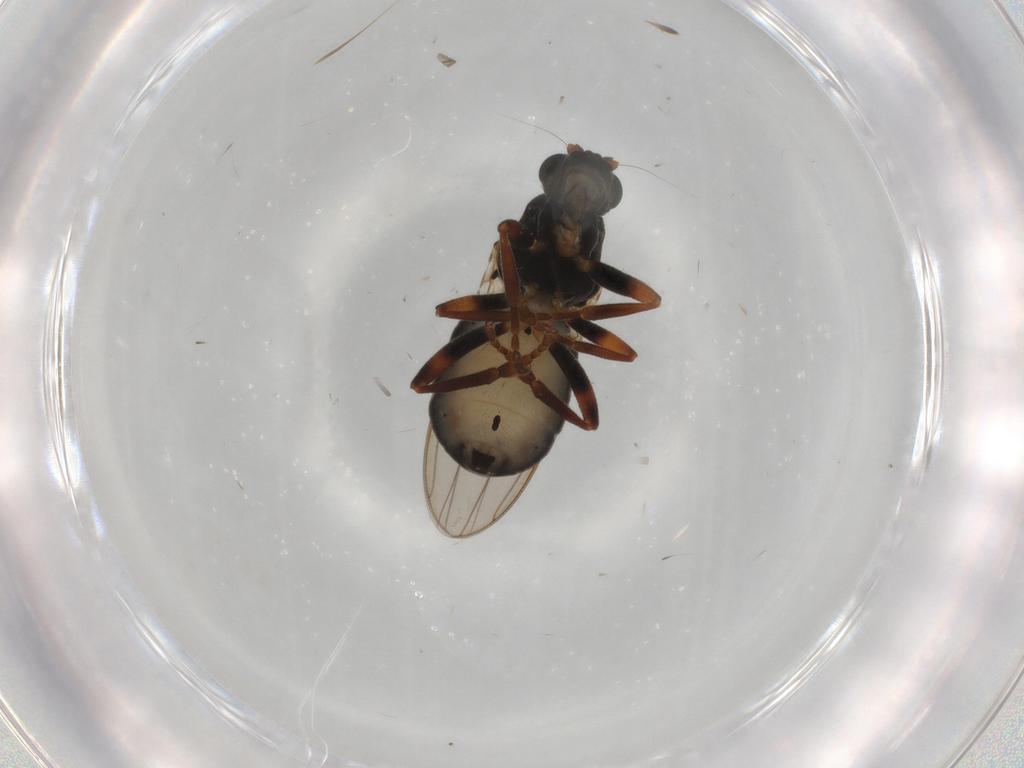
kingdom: Animalia
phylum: Arthropoda
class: Insecta
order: Diptera
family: Sphaeroceridae
